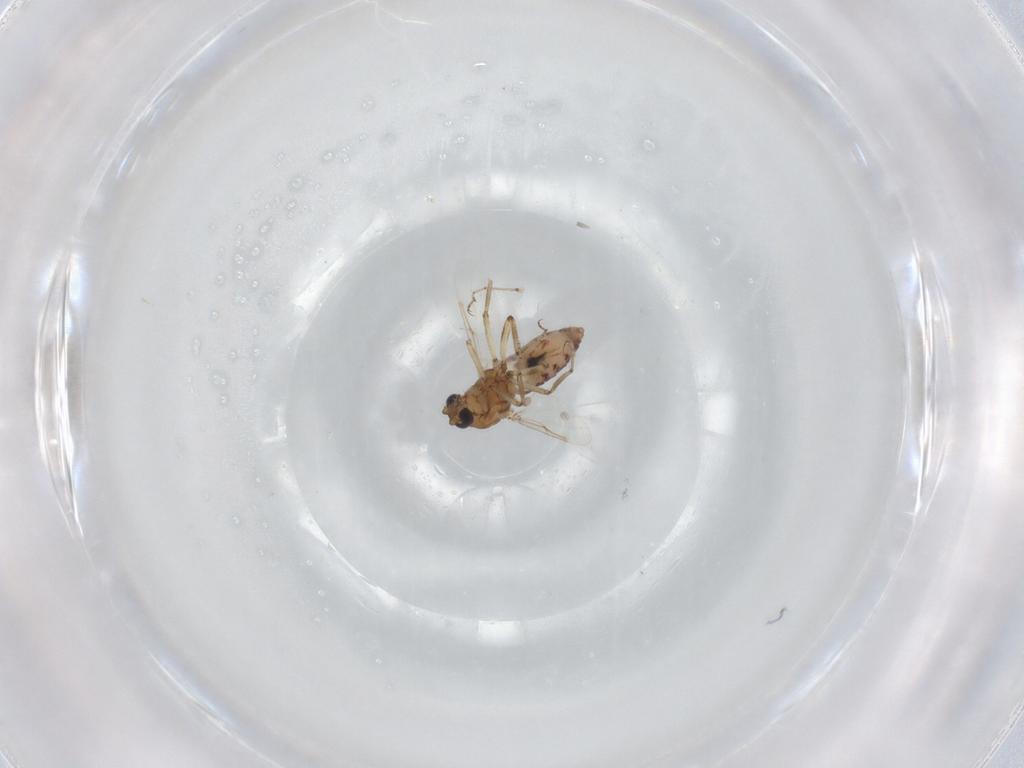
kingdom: Animalia
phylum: Arthropoda
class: Insecta
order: Diptera
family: Ceratopogonidae
